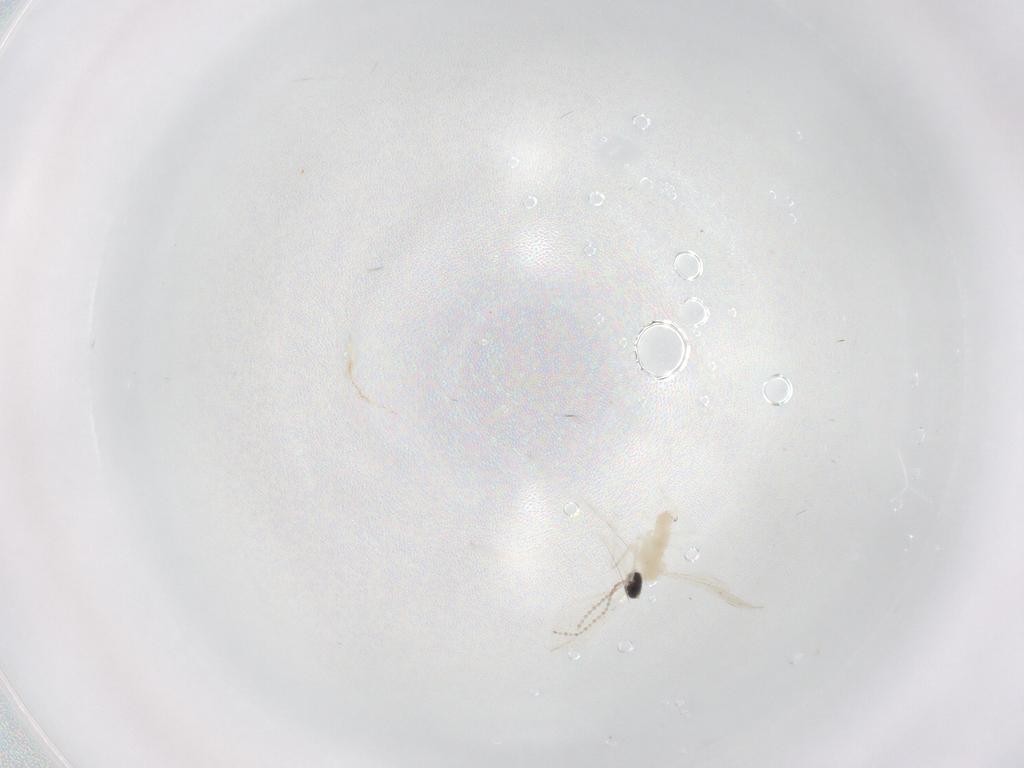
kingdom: Animalia
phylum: Arthropoda
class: Insecta
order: Diptera
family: Cecidomyiidae
